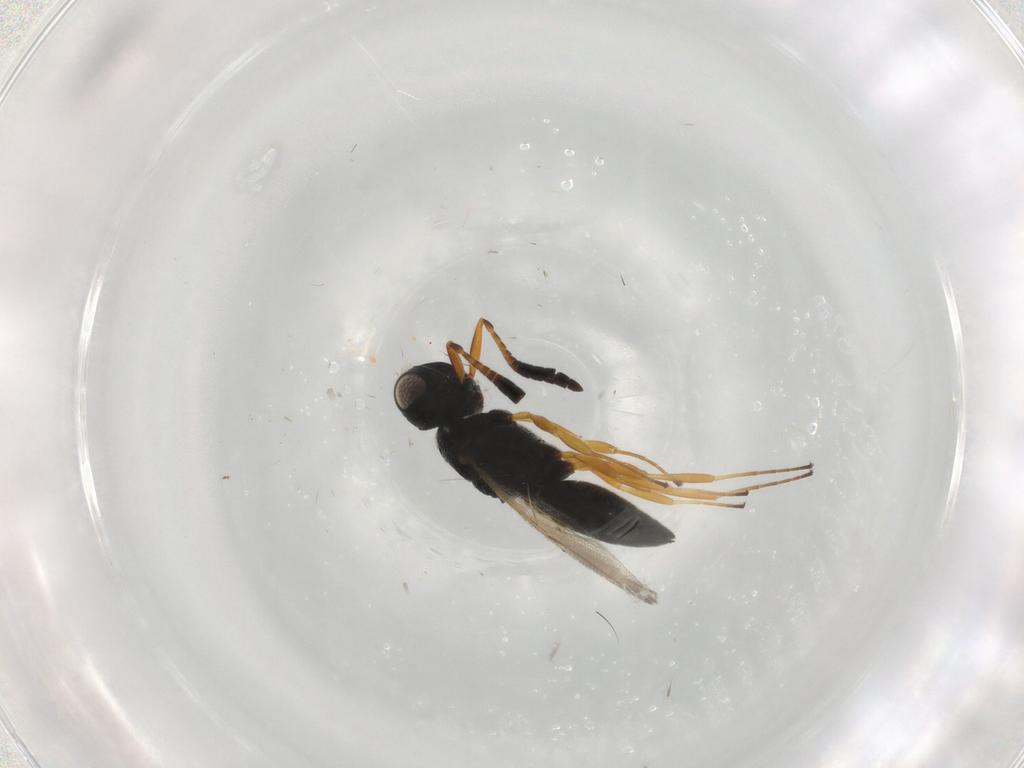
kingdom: Animalia
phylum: Arthropoda
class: Insecta
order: Hymenoptera
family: Scelionidae
